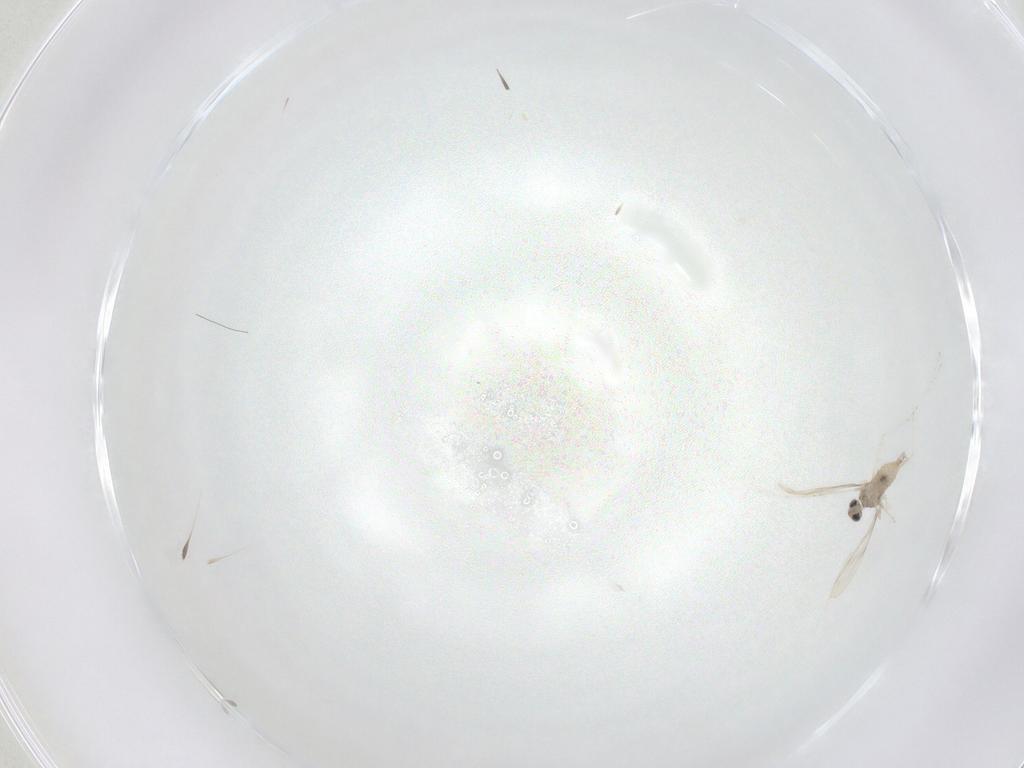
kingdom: Animalia
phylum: Arthropoda
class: Insecta
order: Diptera
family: Cecidomyiidae
